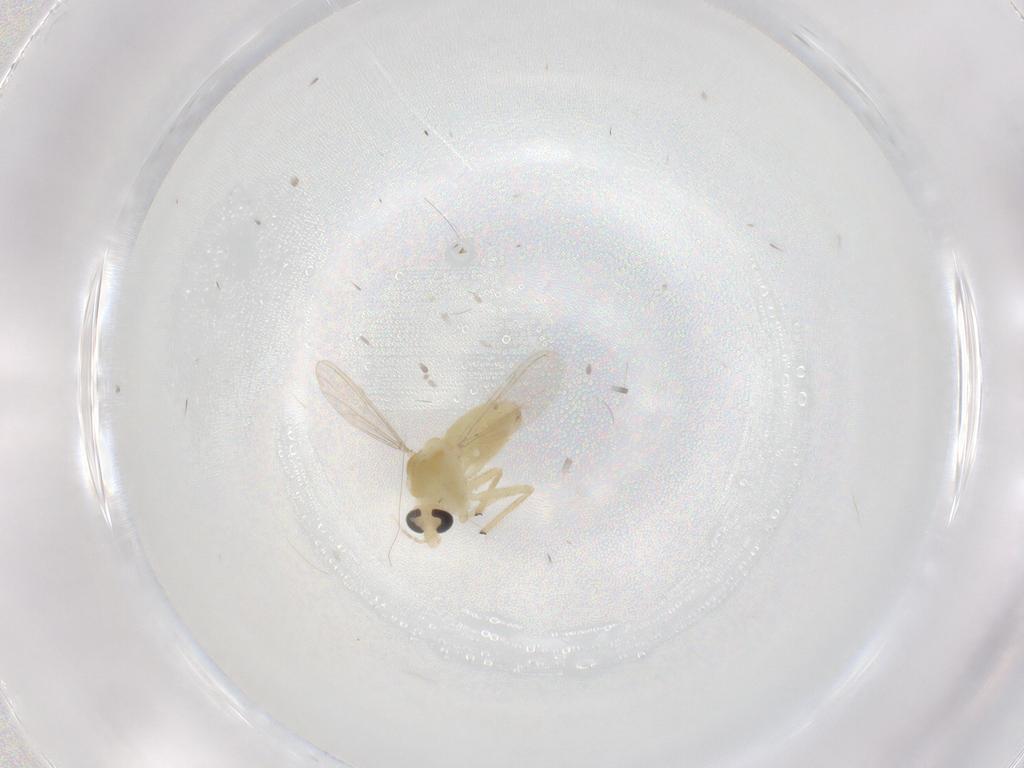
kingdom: Animalia
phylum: Arthropoda
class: Insecta
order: Diptera
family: Chironomidae
